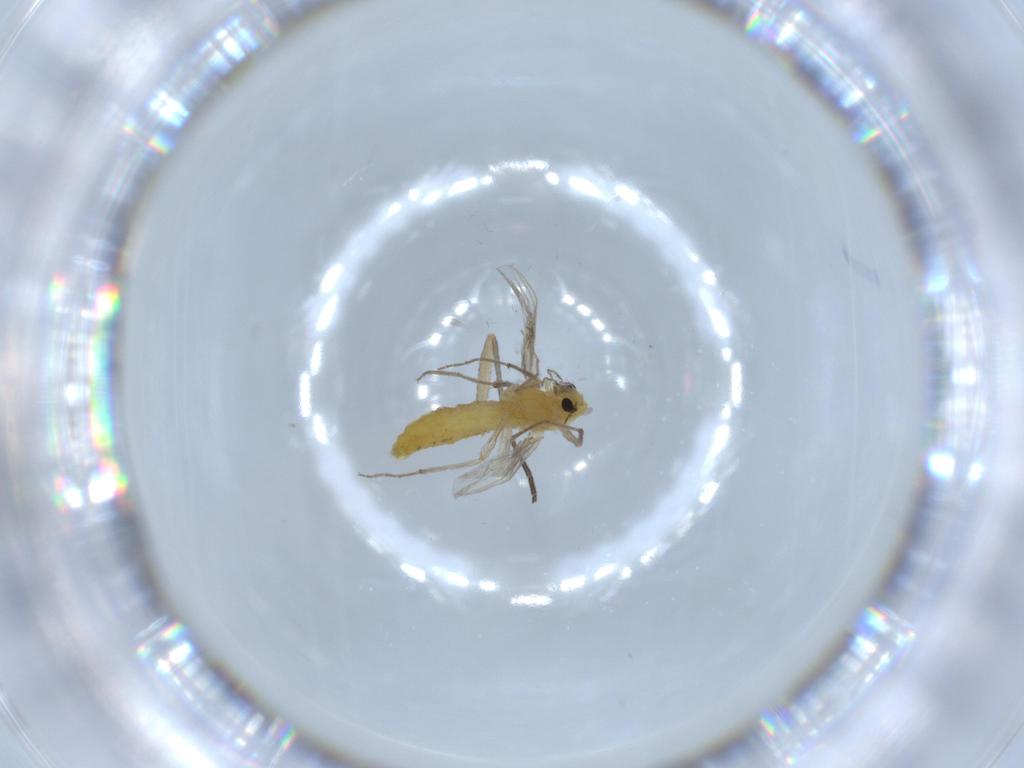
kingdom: Animalia
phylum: Arthropoda
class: Insecta
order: Diptera
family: Chironomidae
